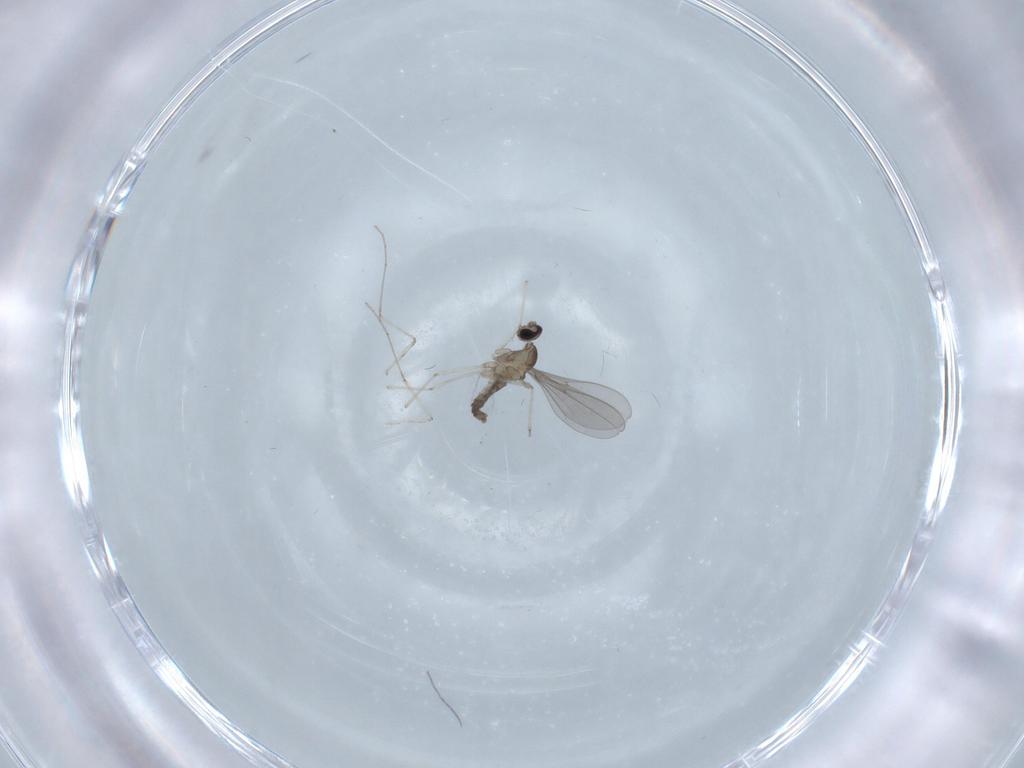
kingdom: Animalia
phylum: Arthropoda
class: Insecta
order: Diptera
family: Cecidomyiidae
